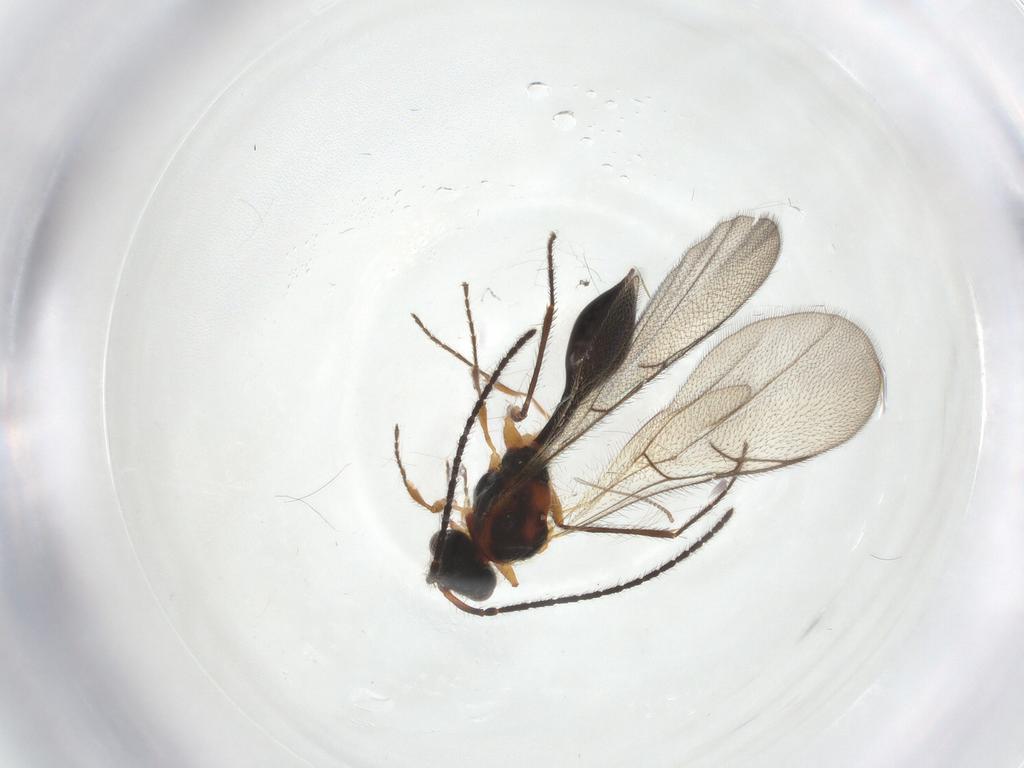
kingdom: Animalia
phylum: Arthropoda
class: Insecta
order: Hymenoptera
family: Diapriidae
